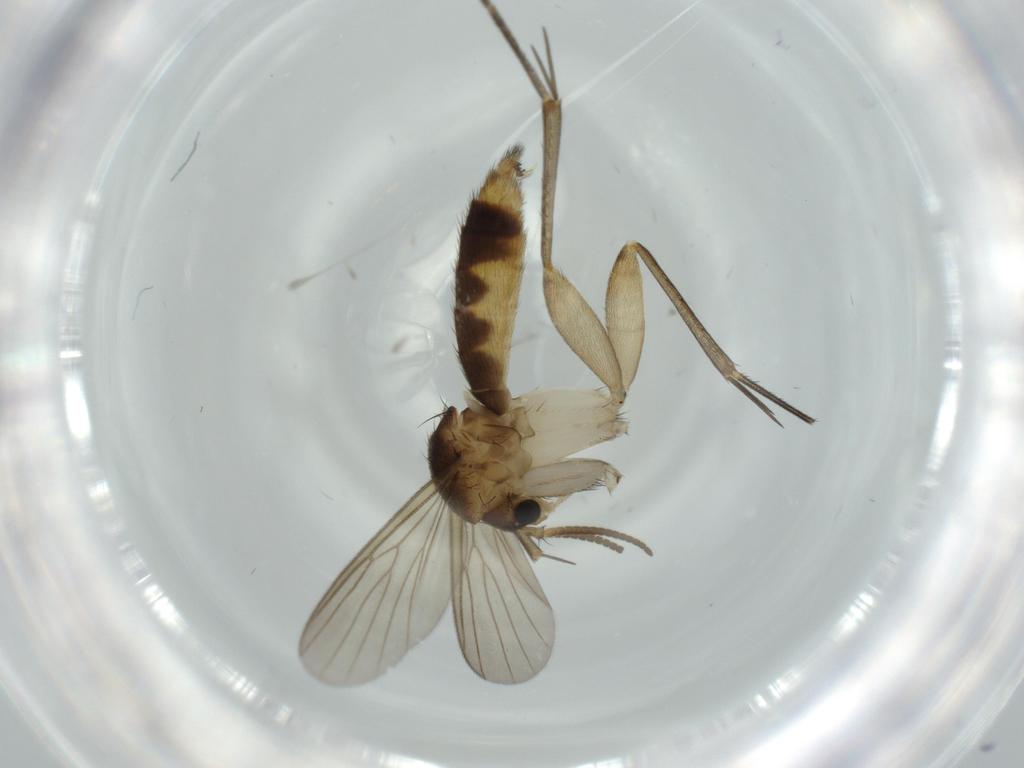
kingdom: Animalia
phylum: Arthropoda
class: Insecta
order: Diptera
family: Mycetophilidae
